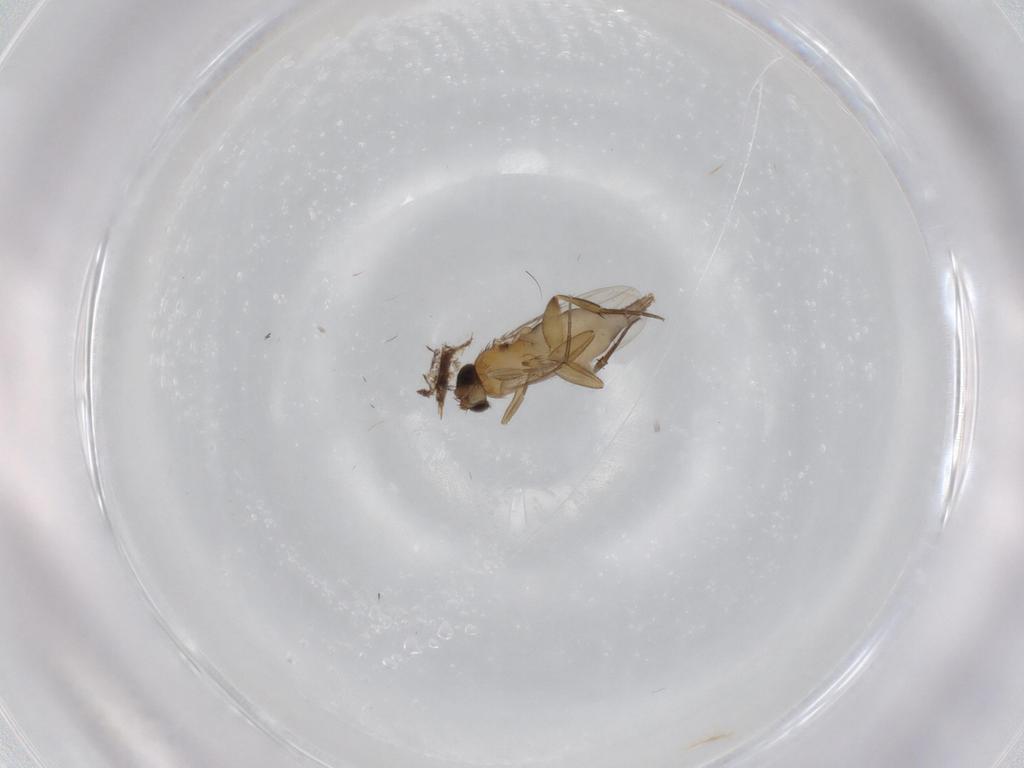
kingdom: Animalia
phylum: Arthropoda
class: Insecta
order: Diptera
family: Phoridae
